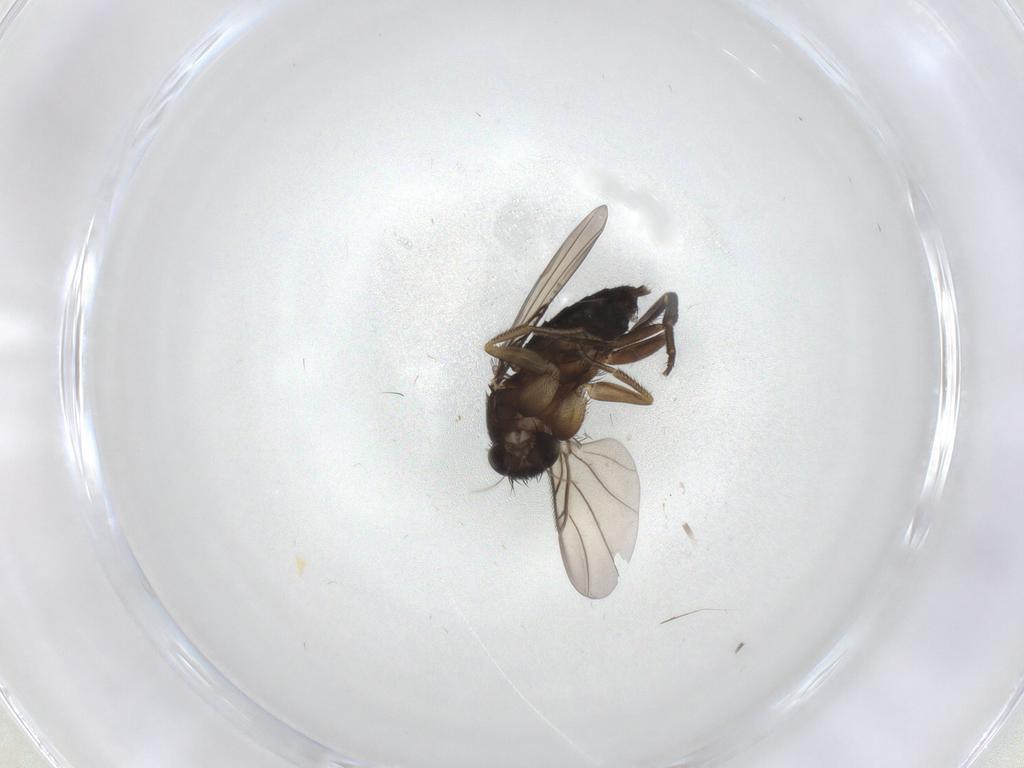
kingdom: Animalia
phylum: Arthropoda
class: Insecta
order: Diptera
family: Phoridae
